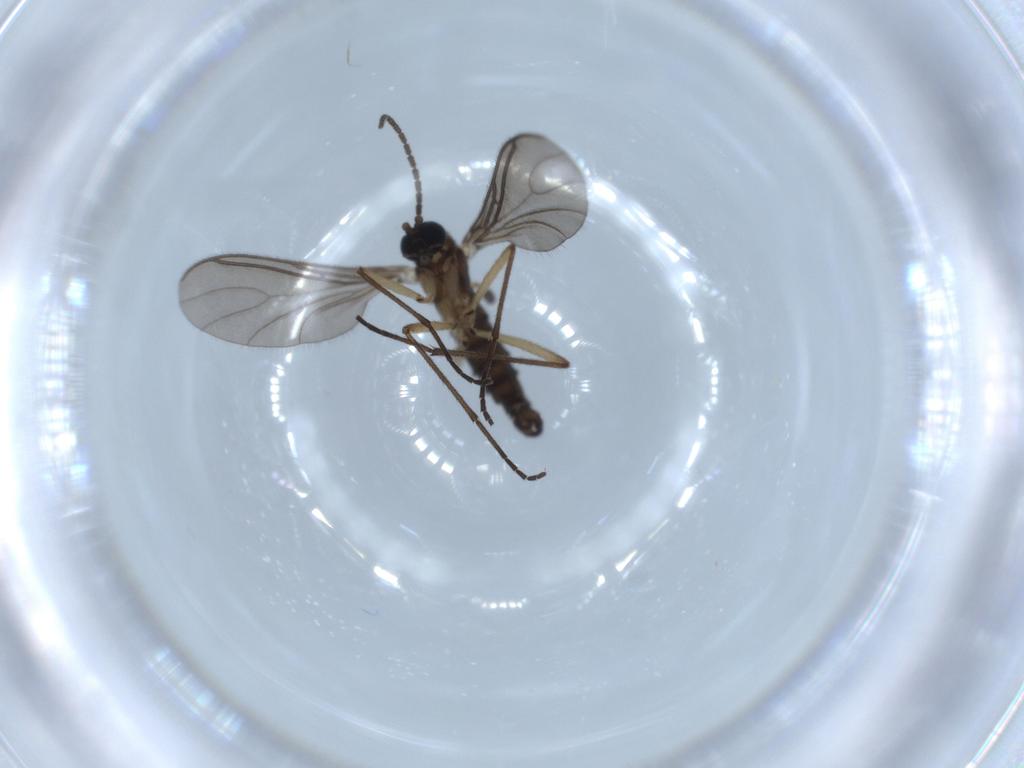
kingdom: Animalia
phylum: Arthropoda
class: Insecta
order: Diptera
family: Sciaridae
